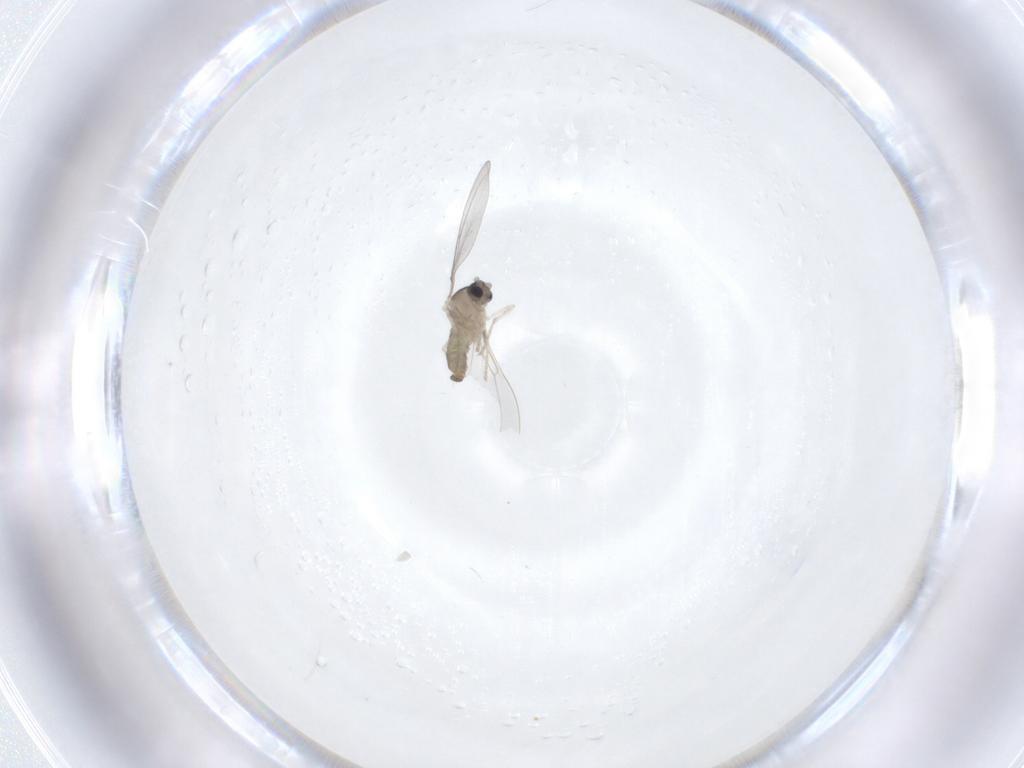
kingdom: Animalia
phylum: Arthropoda
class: Insecta
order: Diptera
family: Cecidomyiidae
